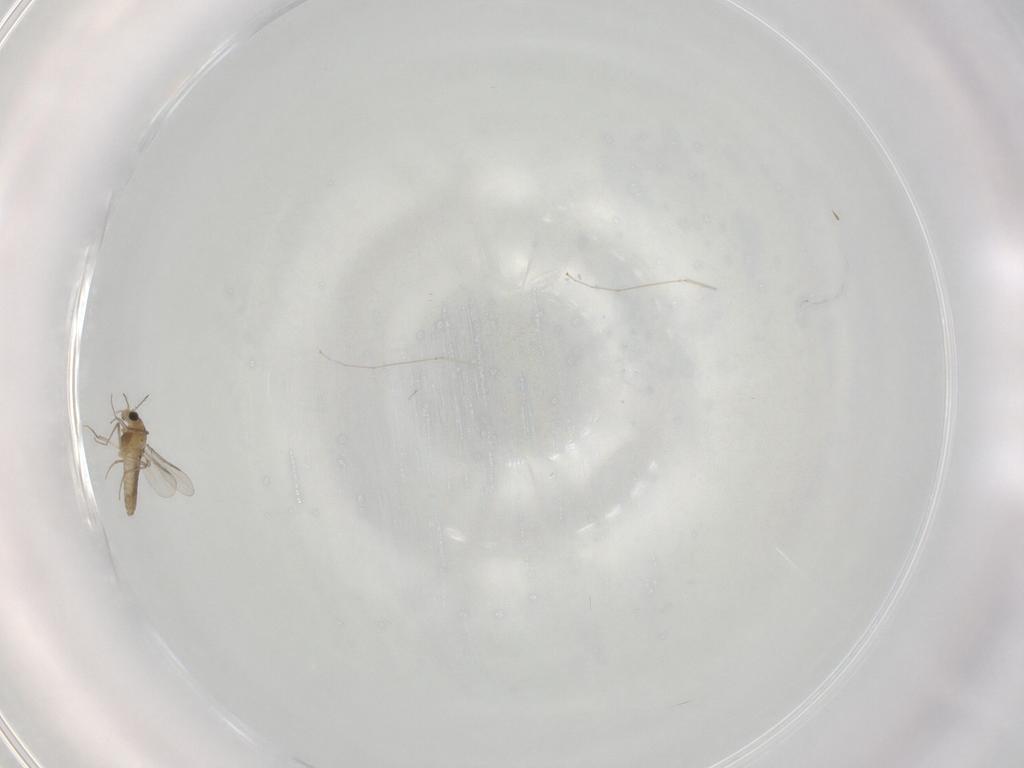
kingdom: Animalia
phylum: Arthropoda
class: Insecta
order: Diptera
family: Cecidomyiidae
